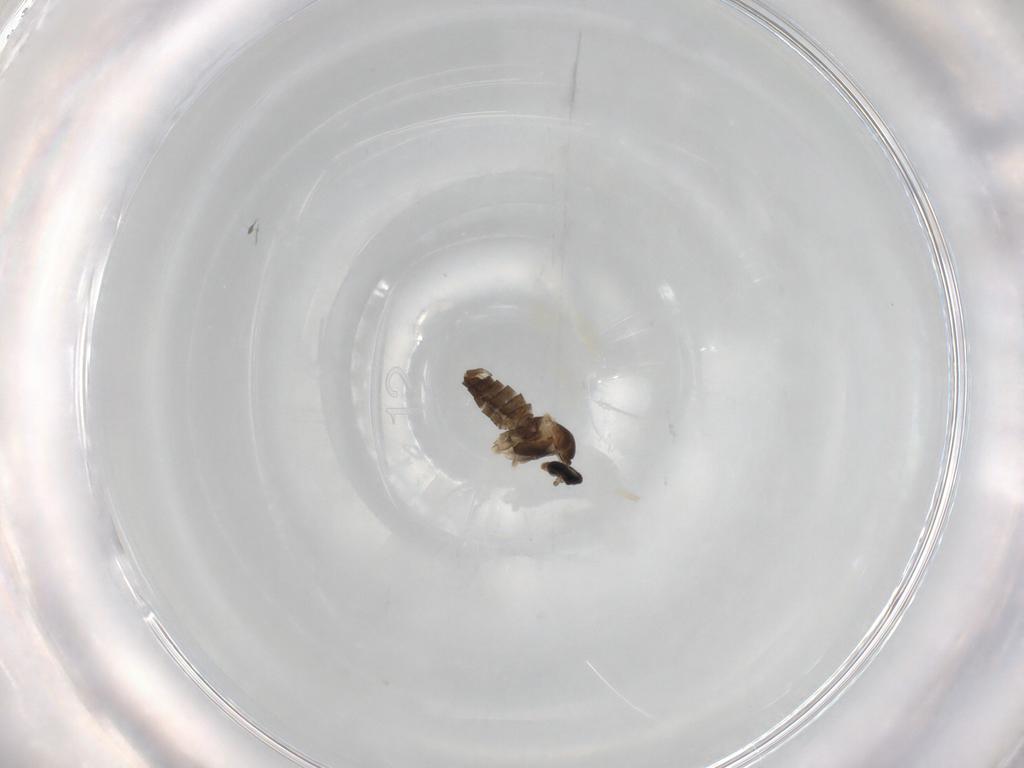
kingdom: Animalia
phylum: Arthropoda
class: Insecta
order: Diptera
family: Cecidomyiidae
